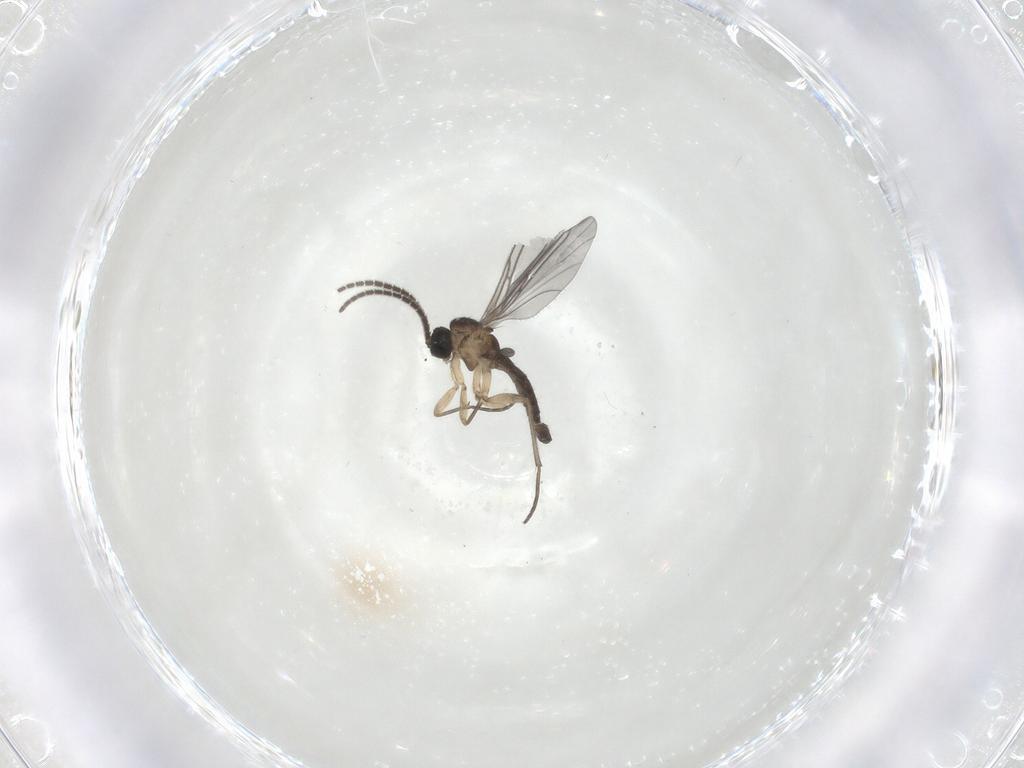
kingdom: Animalia
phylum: Arthropoda
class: Insecta
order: Diptera
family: Sciaridae
